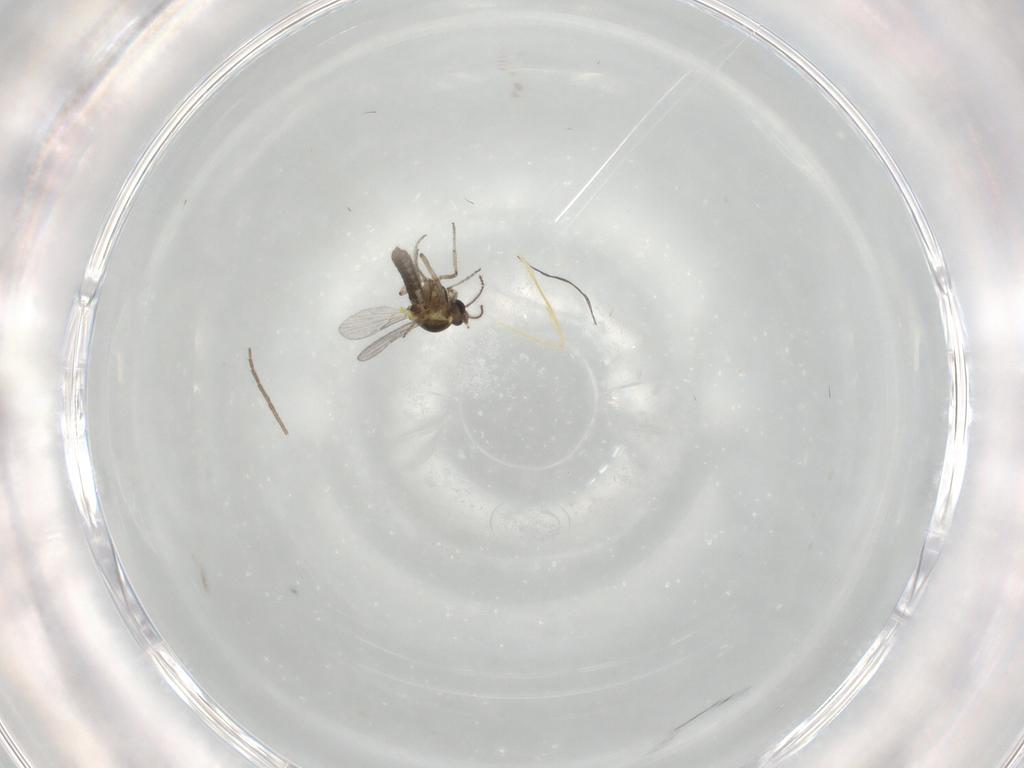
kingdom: Animalia
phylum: Arthropoda
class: Insecta
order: Diptera
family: Ceratopogonidae
